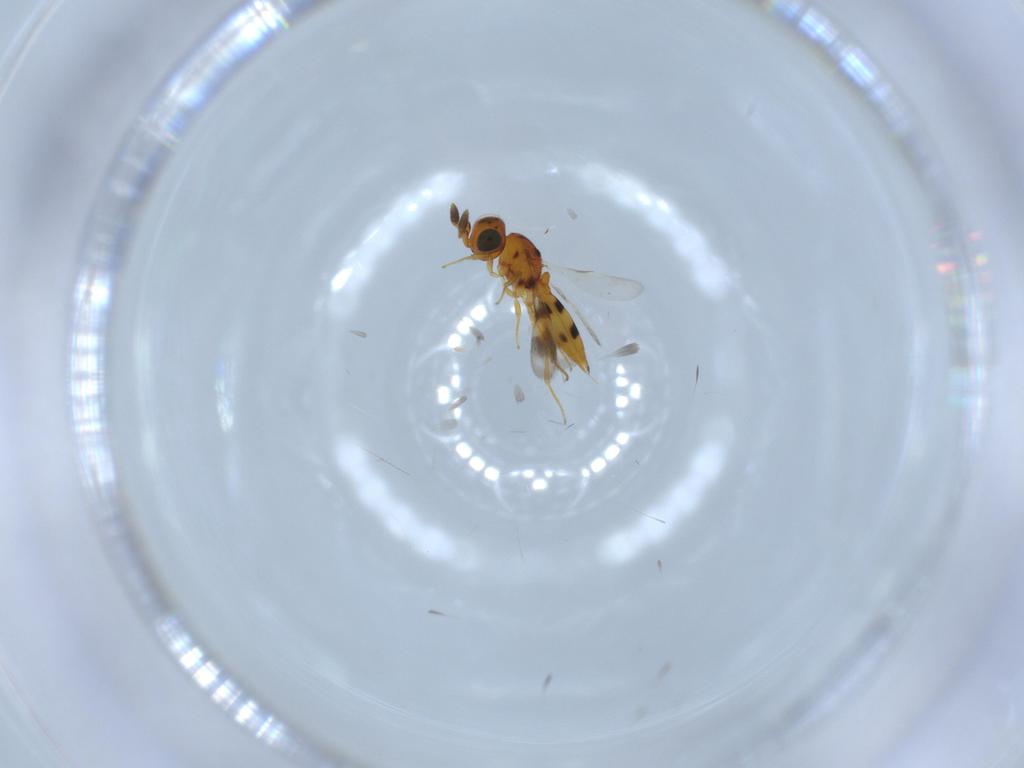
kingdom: Animalia
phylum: Arthropoda
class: Insecta
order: Hymenoptera
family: Scelionidae
